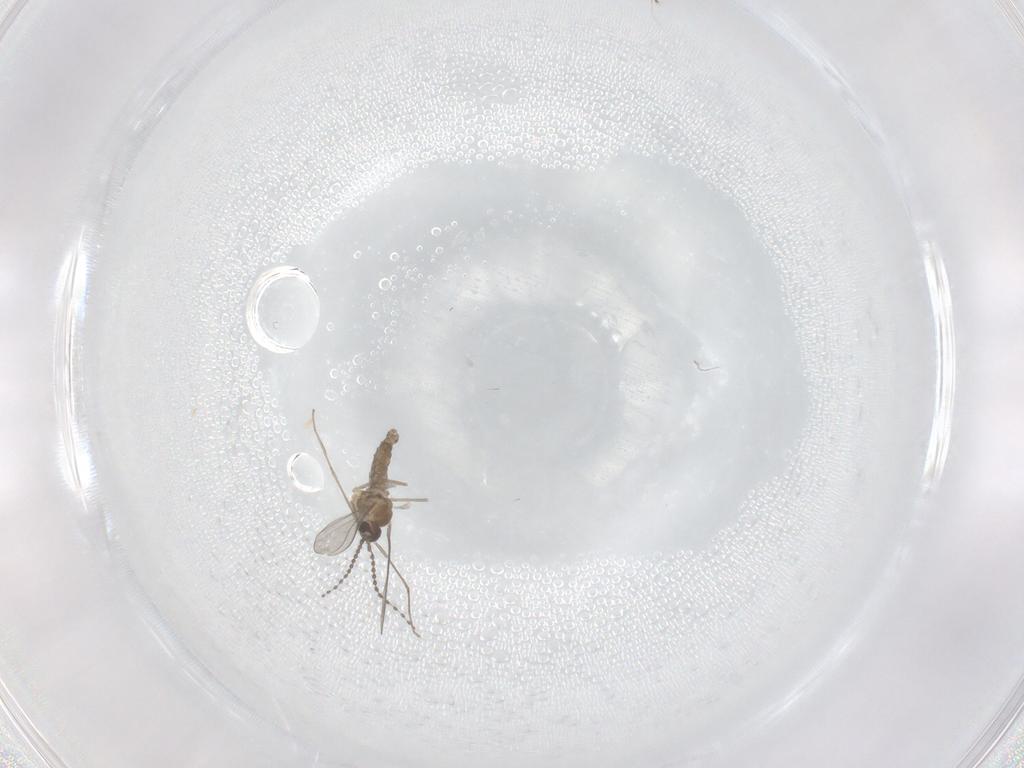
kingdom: Animalia
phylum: Arthropoda
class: Insecta
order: Diptera
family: Cecidomyiidae
